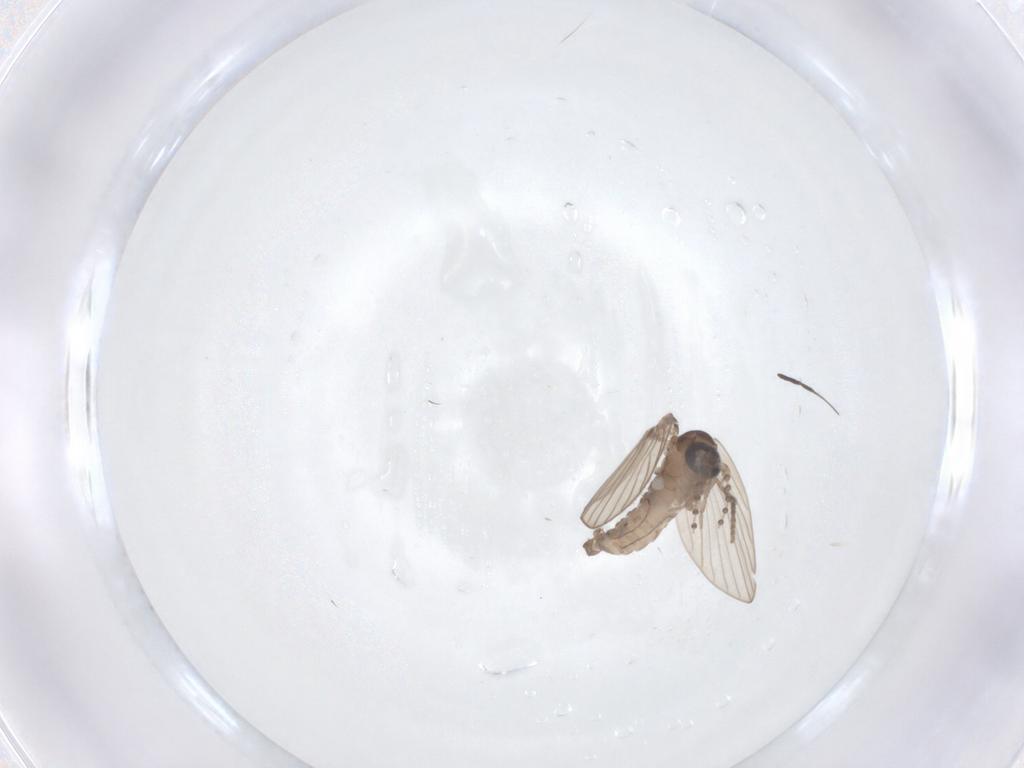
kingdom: Animalia
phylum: Arthropoda
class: Insecta
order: Diptera
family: Psychodidae
